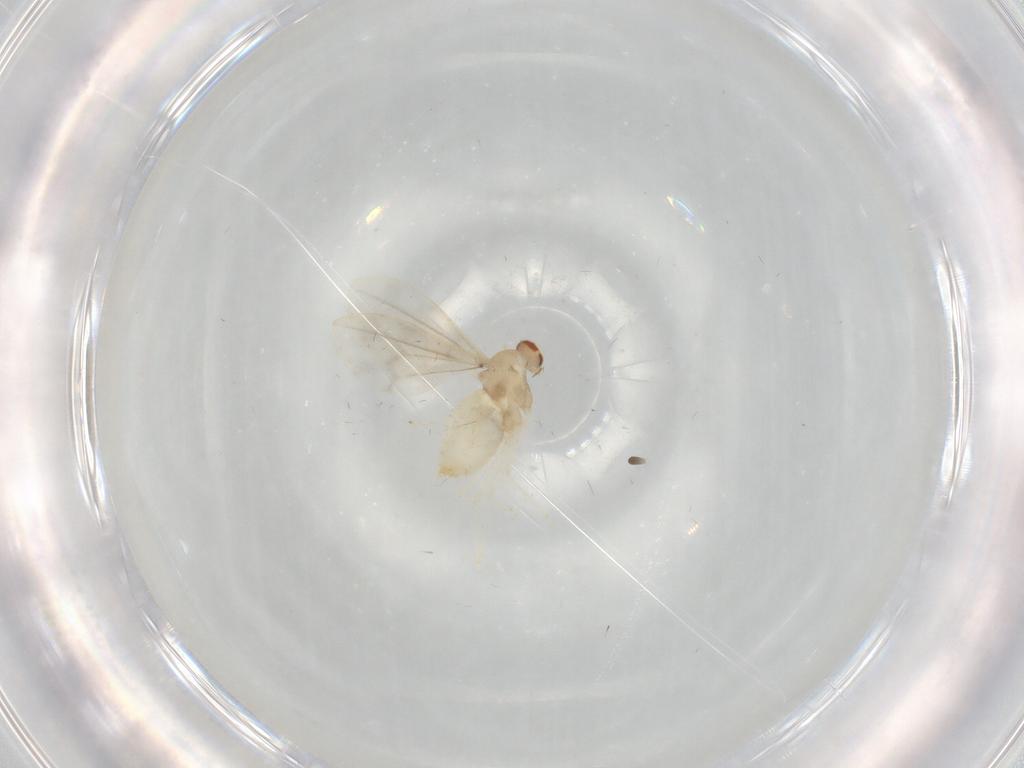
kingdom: Animalia
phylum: Arthropoda
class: Insecta
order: Diptera
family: Cecidomyiidae
